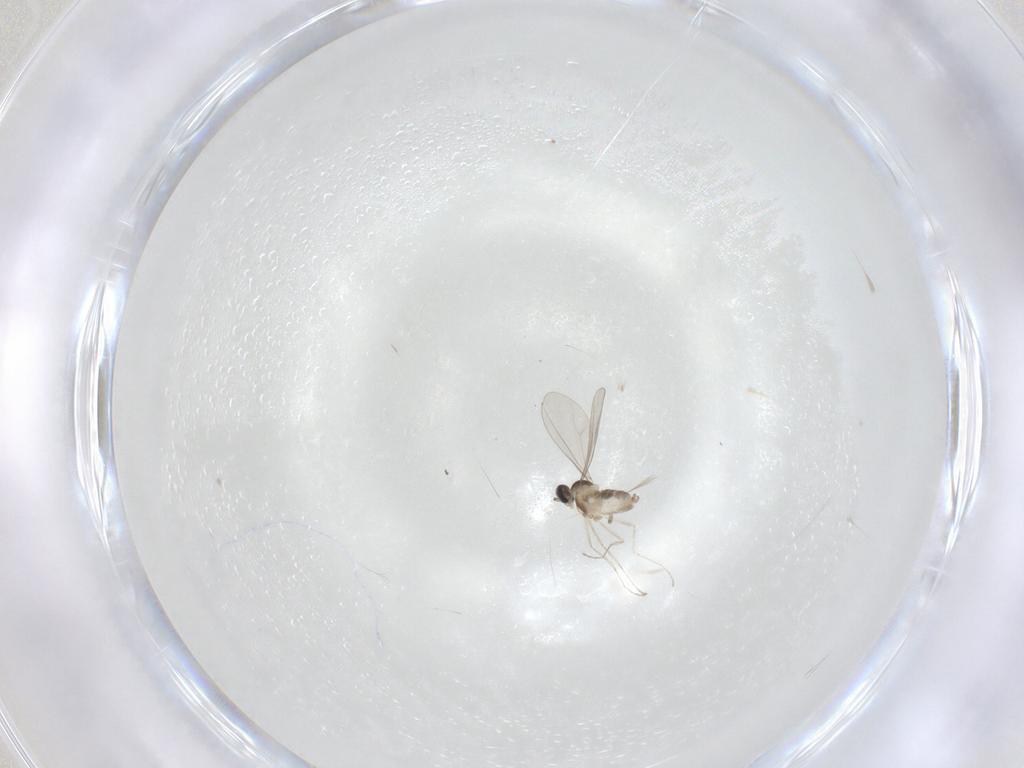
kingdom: Animalia
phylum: Arthropoda
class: Insecta
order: Diptera
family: Cecidomyiidae
